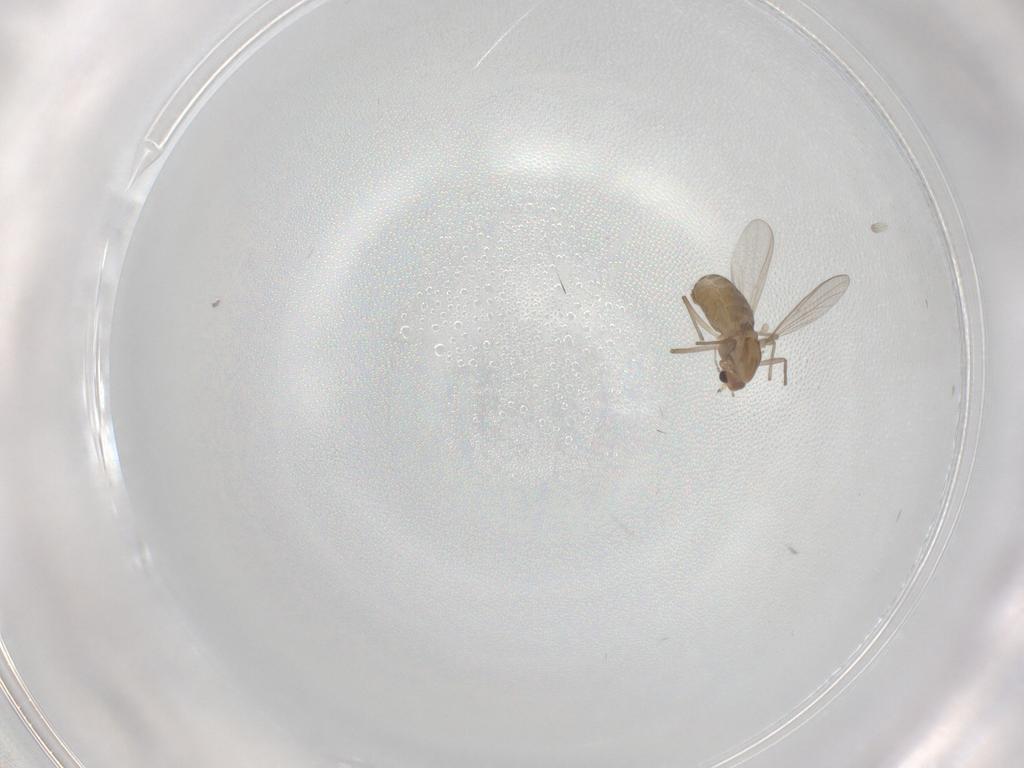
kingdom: Animalia
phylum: Arthropoda
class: Insecta
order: Diptera
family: Chironomidae
